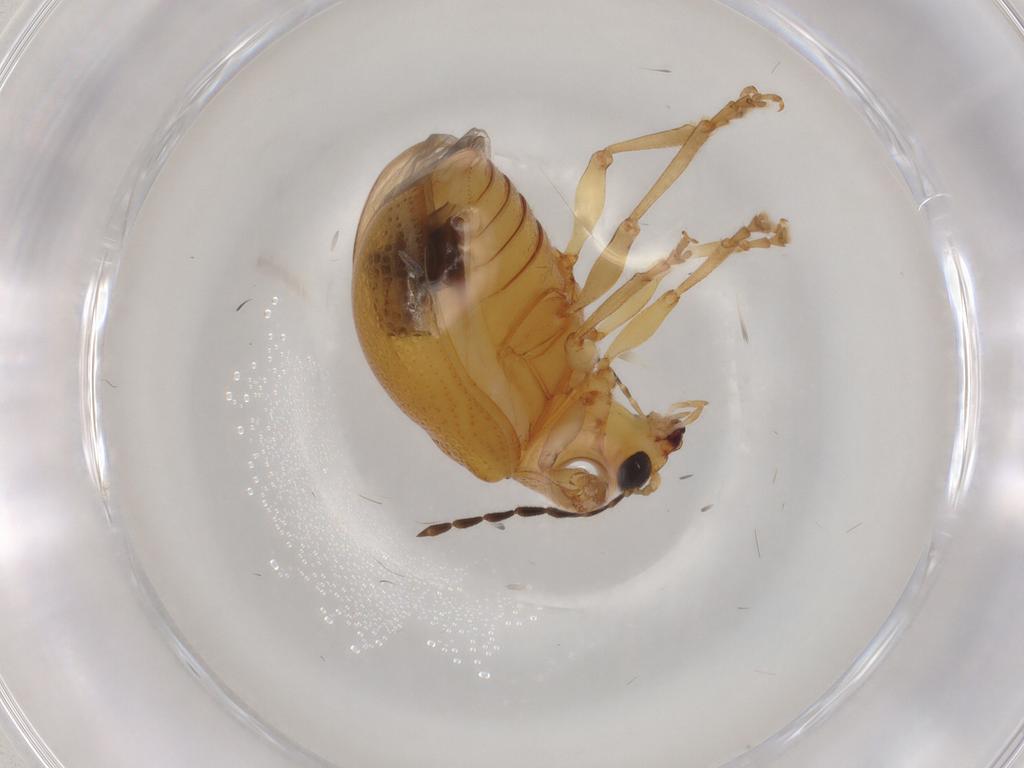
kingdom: Animalia
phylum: Arthropoda
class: Insecta
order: Coleoptera
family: Chrysomelidae
